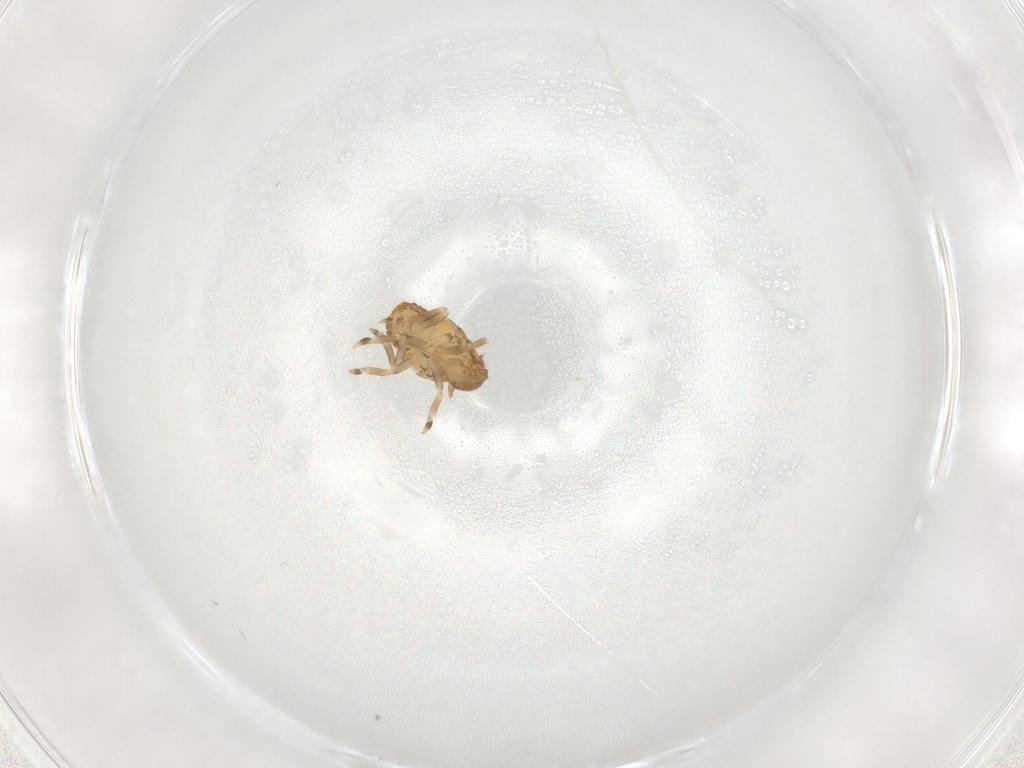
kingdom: Animalia
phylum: Arthropoda
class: Insecta
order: Hemiptera
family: Flatidae
